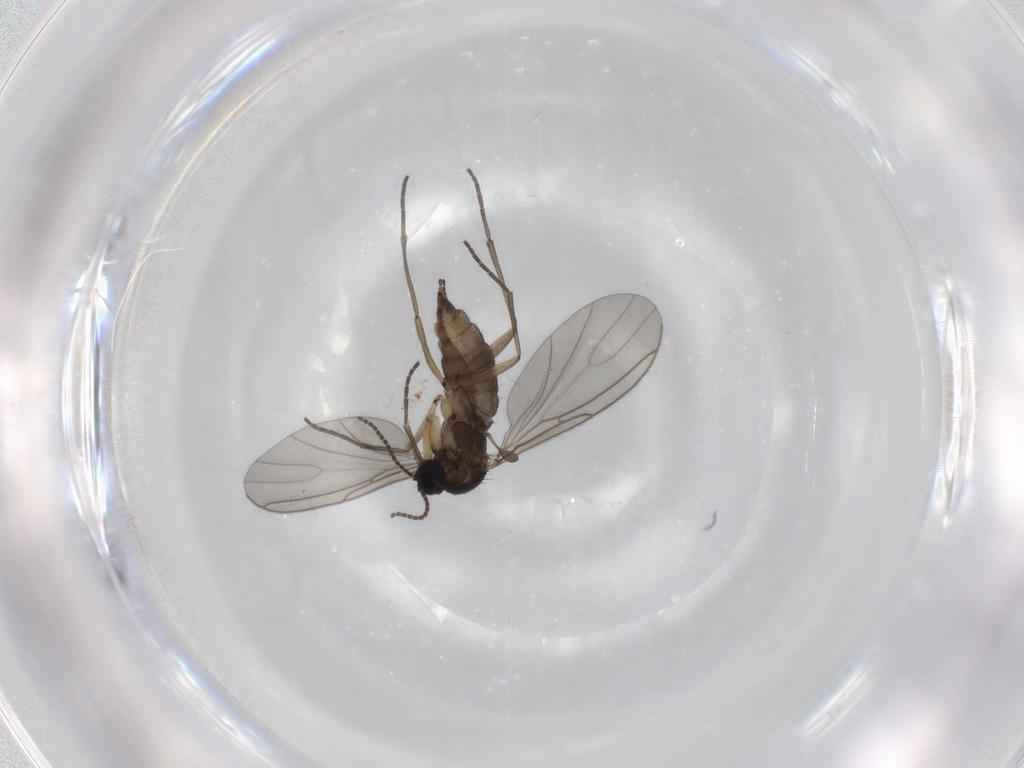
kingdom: Animalia
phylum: Arthropoda
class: Insecta
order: Diptera
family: Sciaridae
